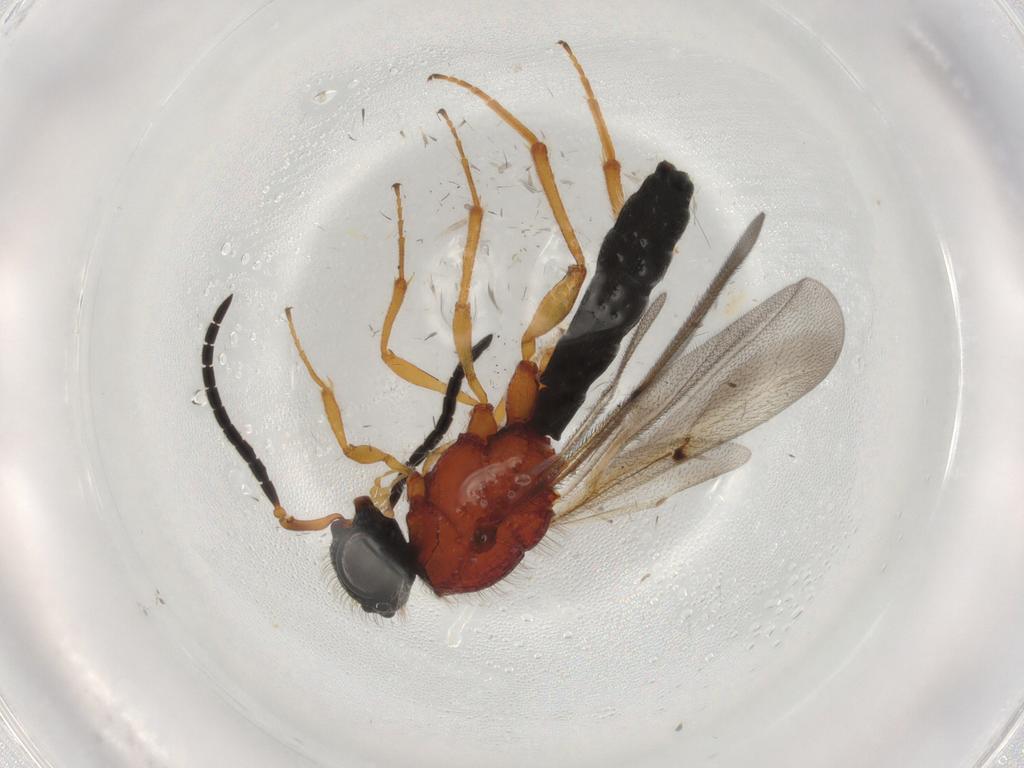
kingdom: Animalia
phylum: Arthropoda
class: Insecta
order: Hymenoptera
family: Scelionidae
